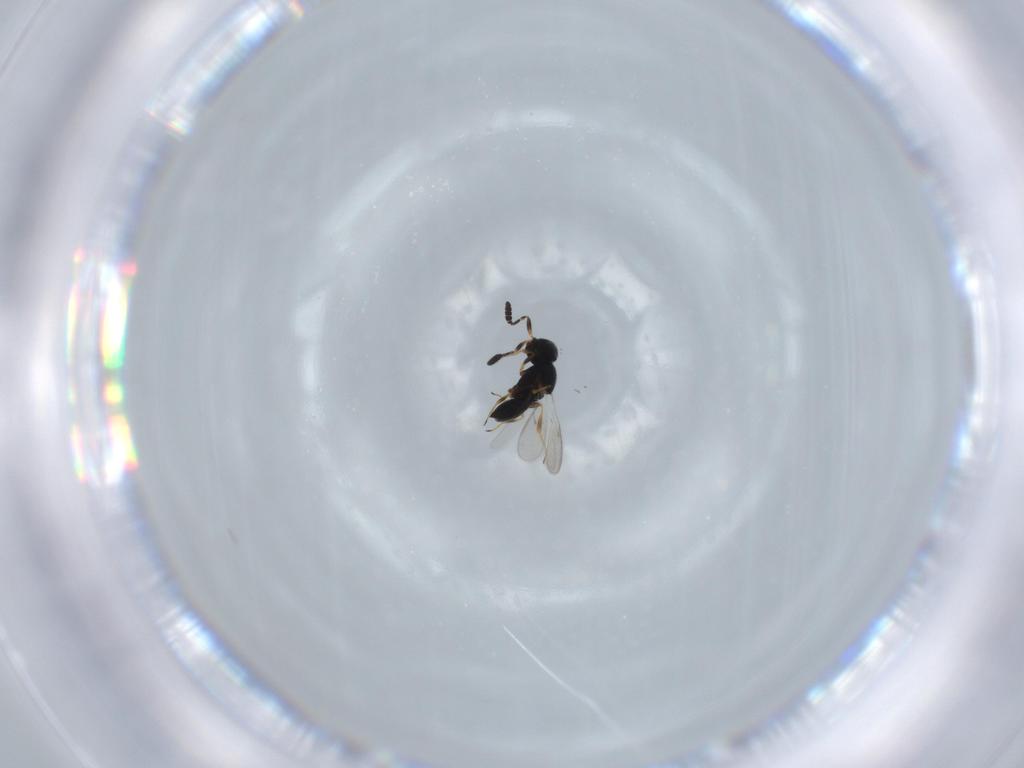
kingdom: Animalia
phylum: Arthropoda
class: Insecta
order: Hymenoptera
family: Scelionidae
